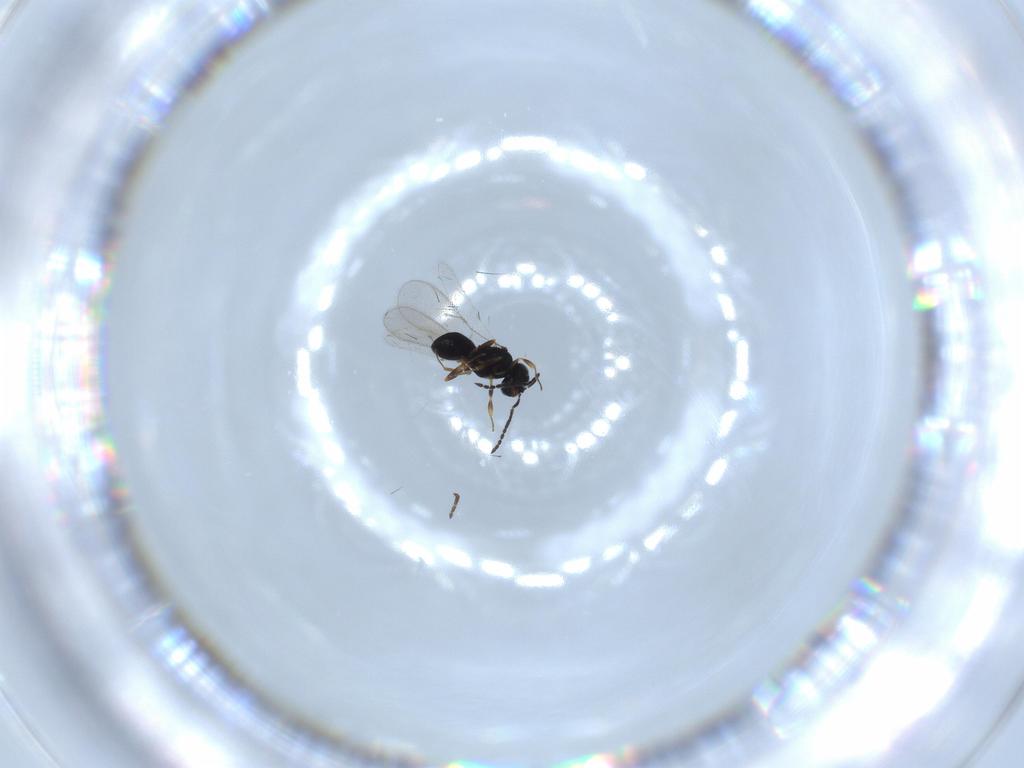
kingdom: Animalia
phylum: Arthropoda
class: Insecta
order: Hymenoptera
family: Scelionidae
